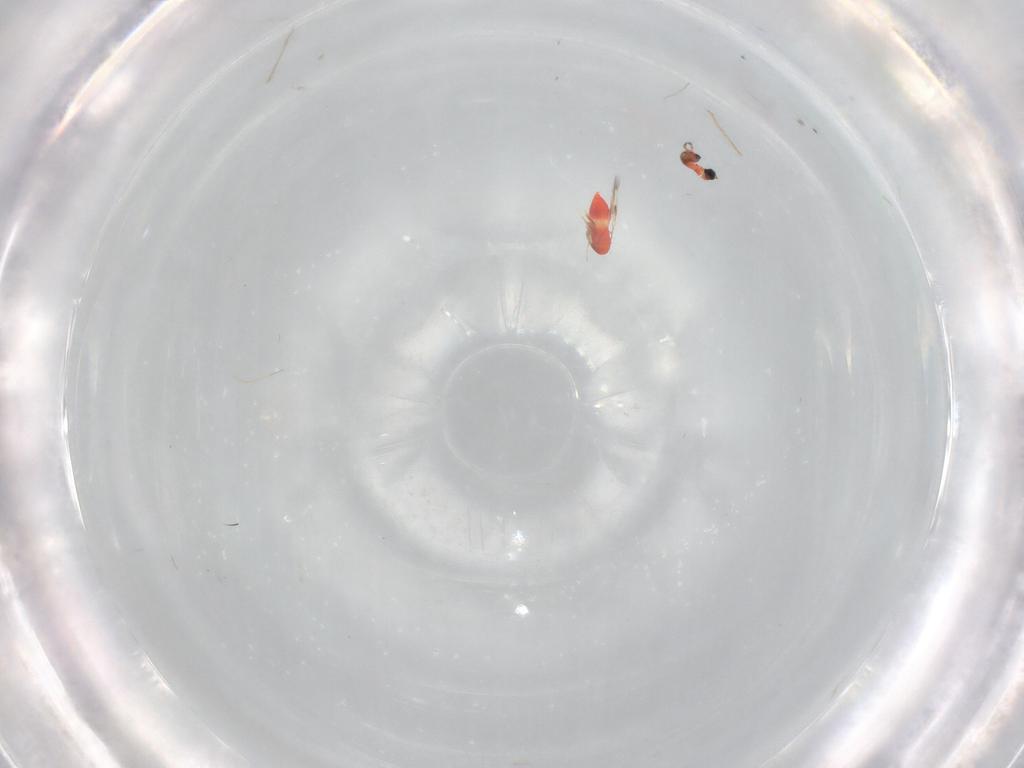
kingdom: Animalia
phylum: Arthropoda
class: Insecta
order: Hymenoptera
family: Trichogrammatidae
